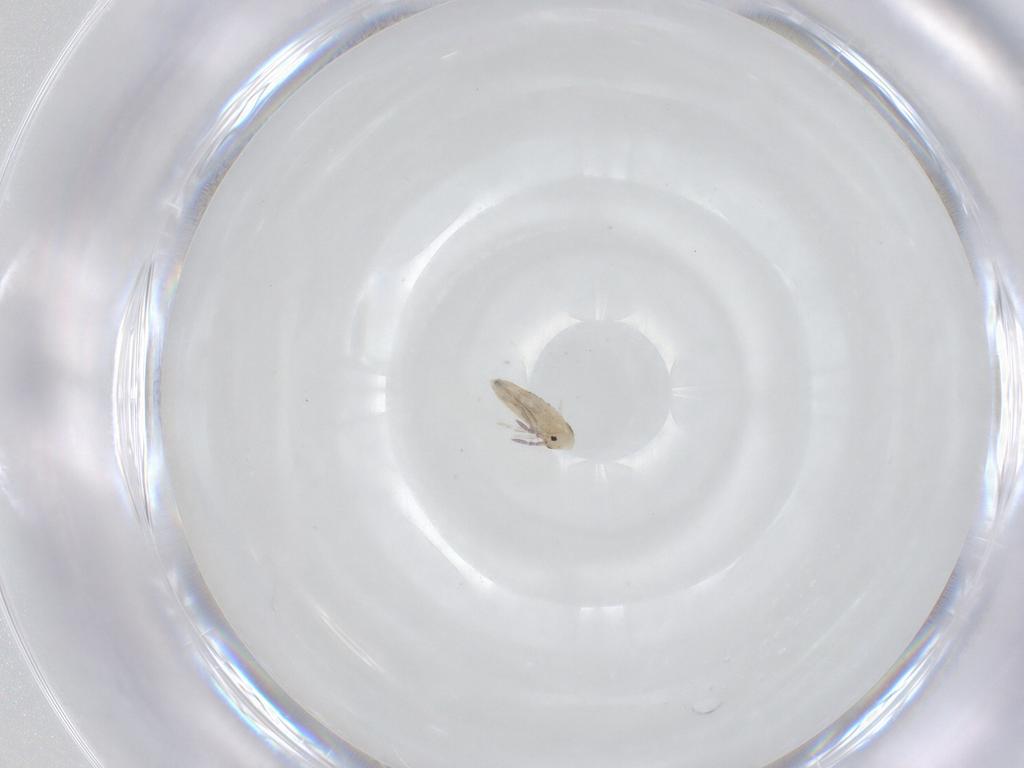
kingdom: Animalia
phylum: Arthropoda
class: Collembola
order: Entomobryomorpha
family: Entomobryidae
